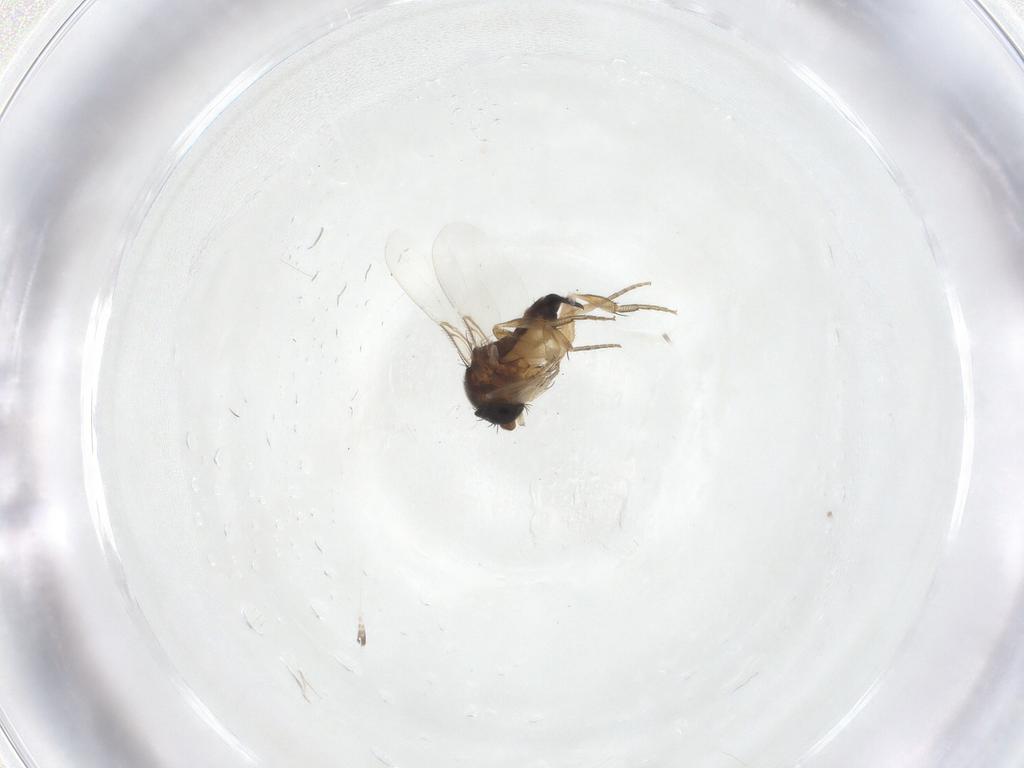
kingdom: Animalia
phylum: Arthropoda
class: Insecta
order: Diptera
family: Phoridae
